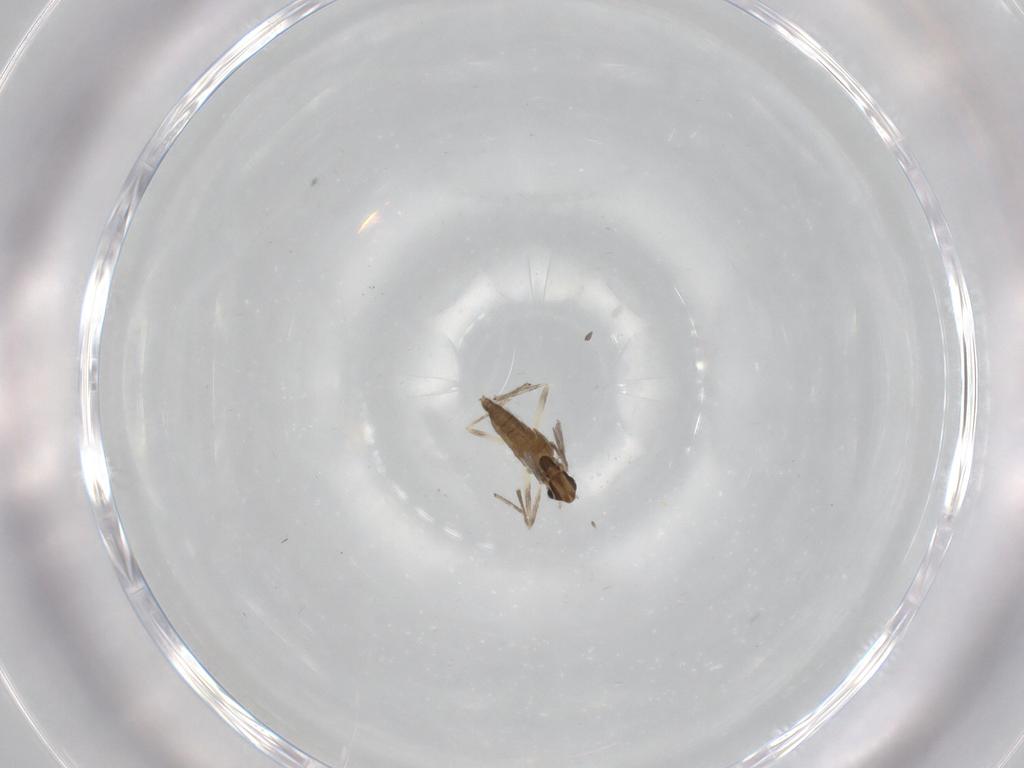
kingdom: Animalia
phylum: Arthropoda
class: Insecta
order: Diptera
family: Chironomidae
